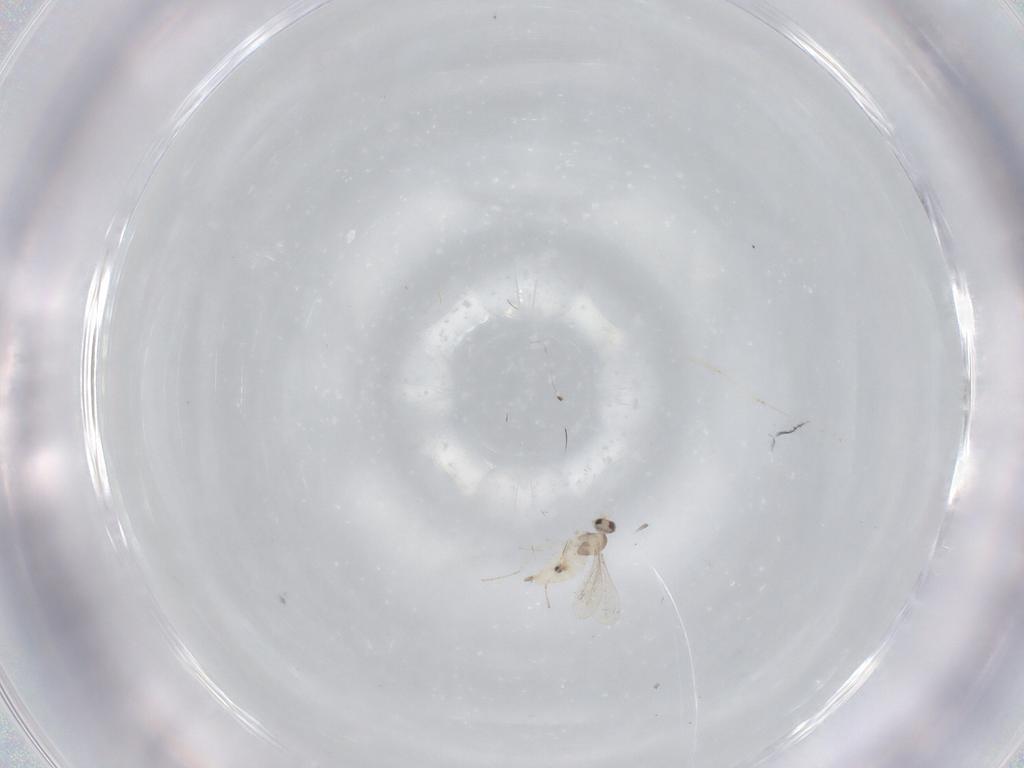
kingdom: Animalia
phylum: Arthropoda
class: Insecta
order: Diptera
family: Cecidomyiidae
